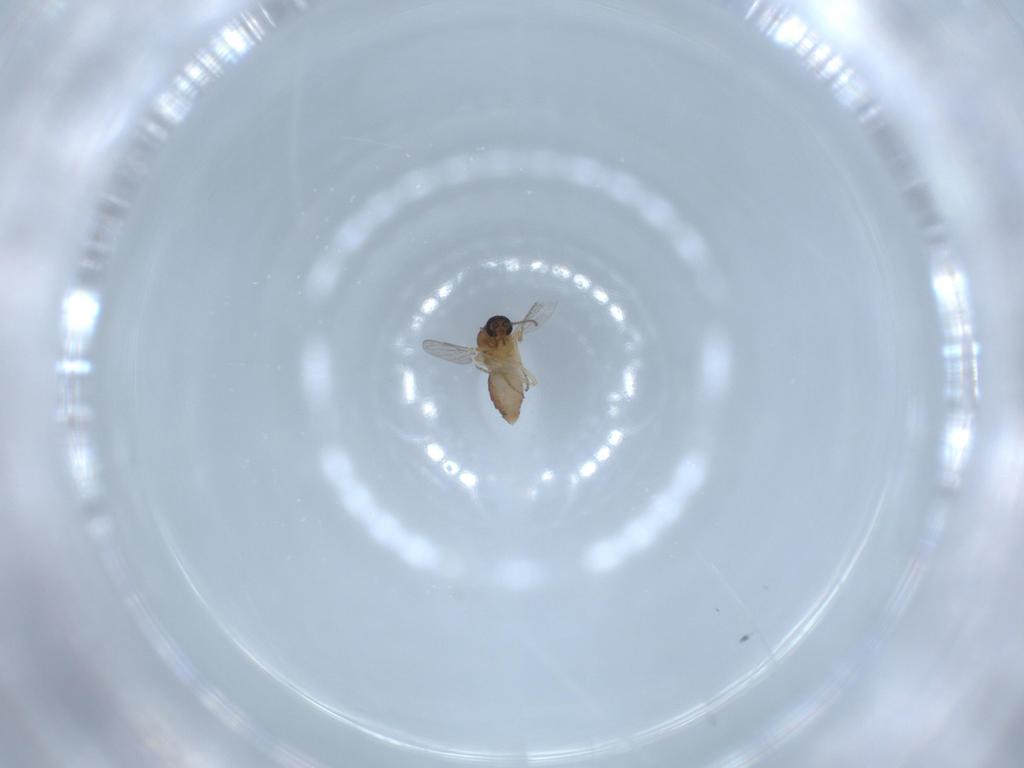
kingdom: Animalia
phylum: Arthropoda
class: Insecta
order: Diptera
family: Ceratopogonidae
